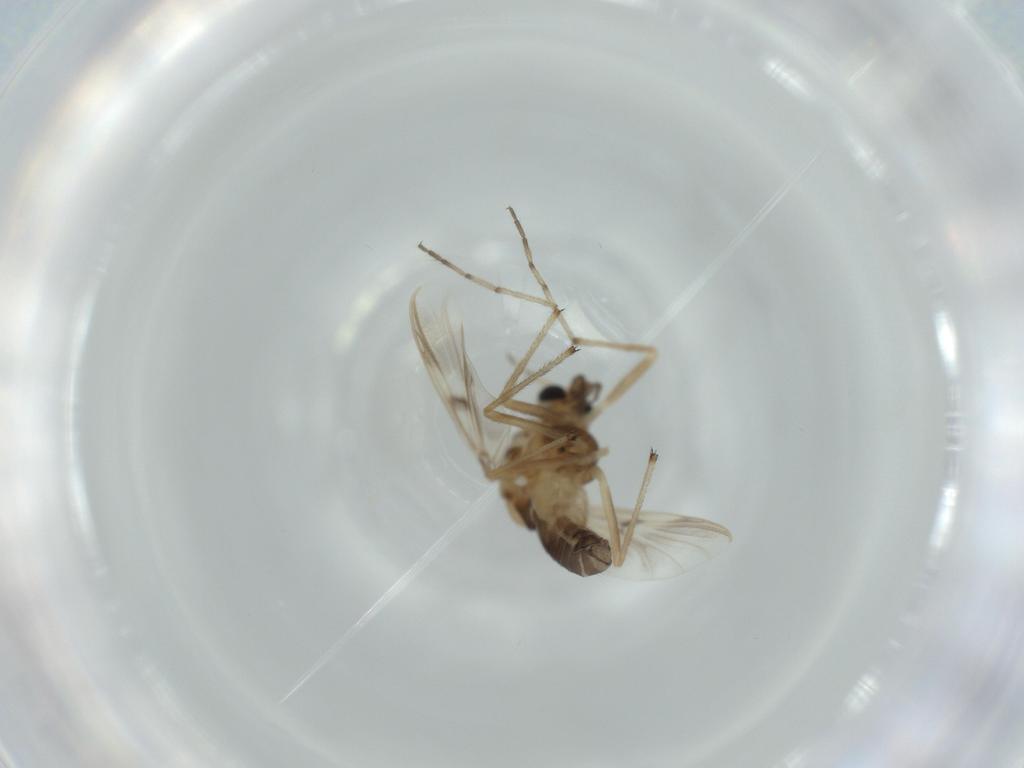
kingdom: Animalia
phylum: Arthropoda
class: Insecta
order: Diptera
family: Chironomidae
